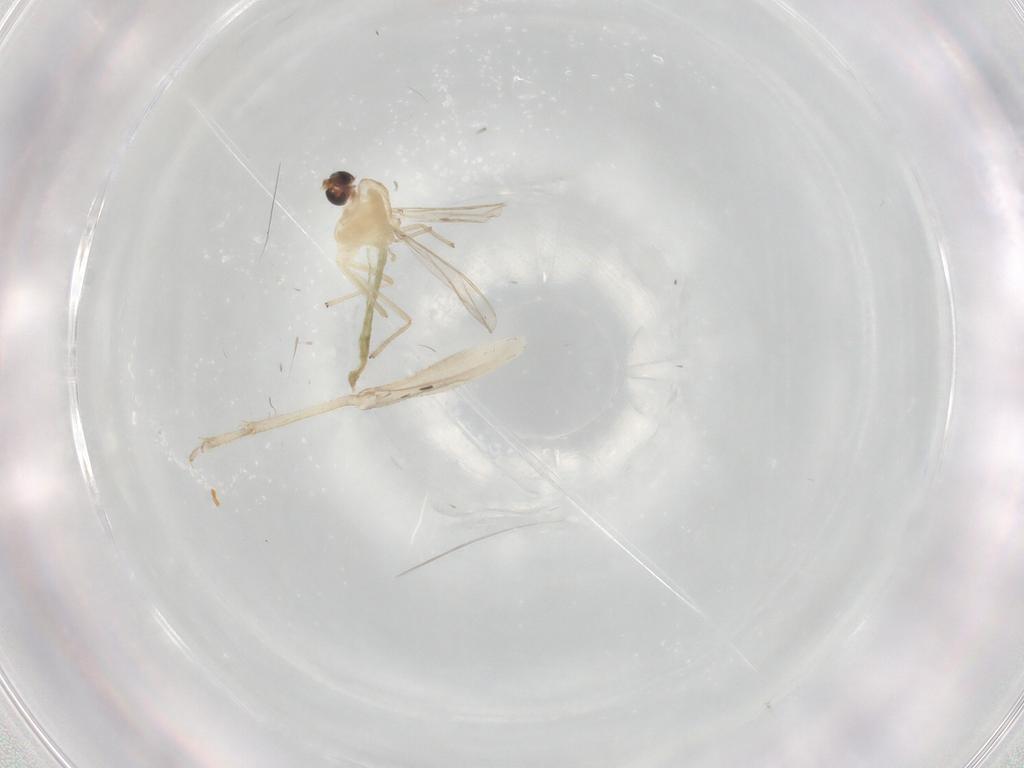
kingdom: Animalia
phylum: Arthropoda
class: Insecta
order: Diptera
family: Chironomidae
